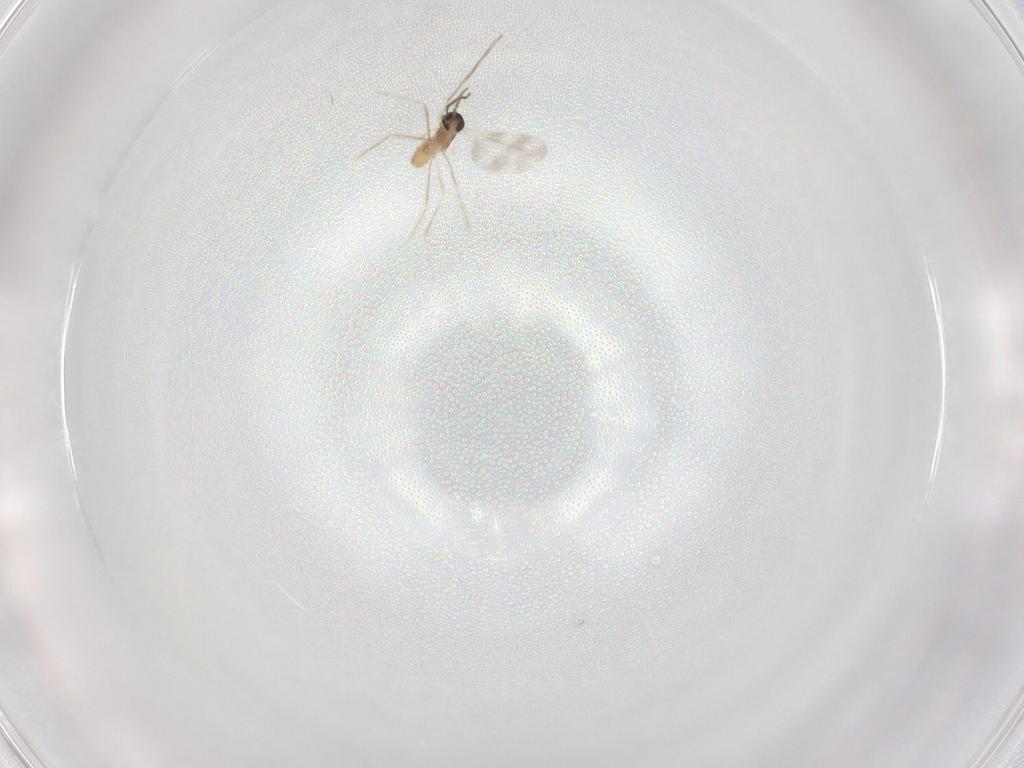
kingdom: Animalia
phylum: Arthropoda
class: Insecta
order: Diptera
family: Cecidomyiidae
